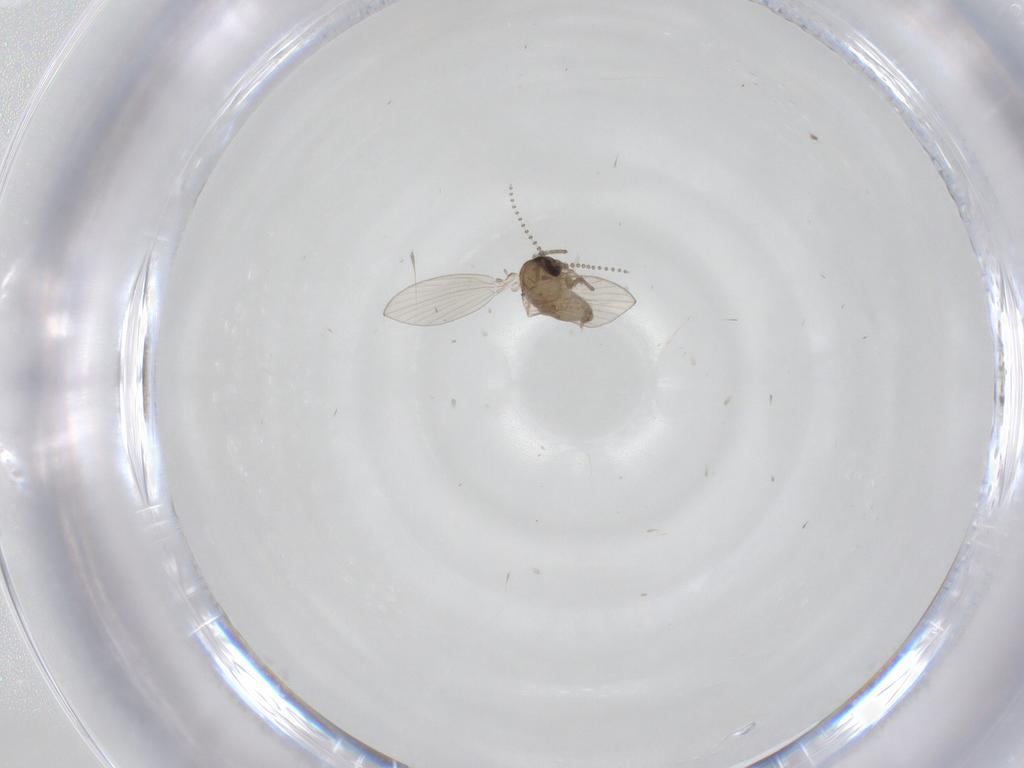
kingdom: Animalia
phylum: Arthropoda
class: Insecta
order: Diptera
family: Psychodidae
